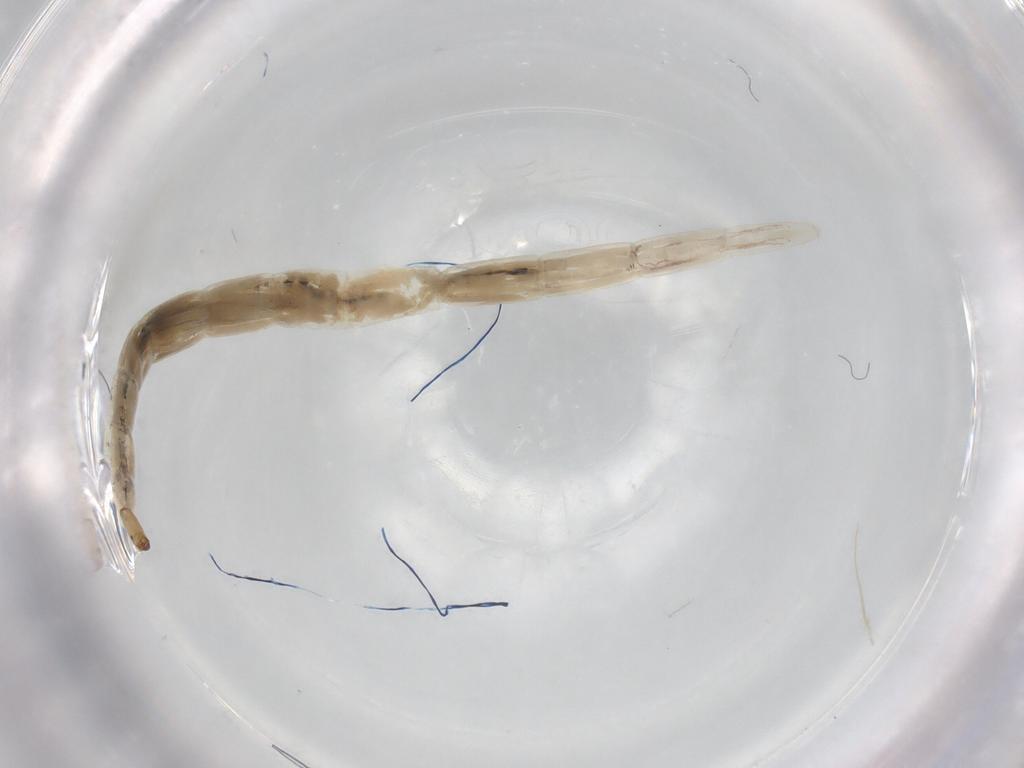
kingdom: Animalia
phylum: Arthropoda
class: Insecta
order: Diptera
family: Ceratopogonidae
